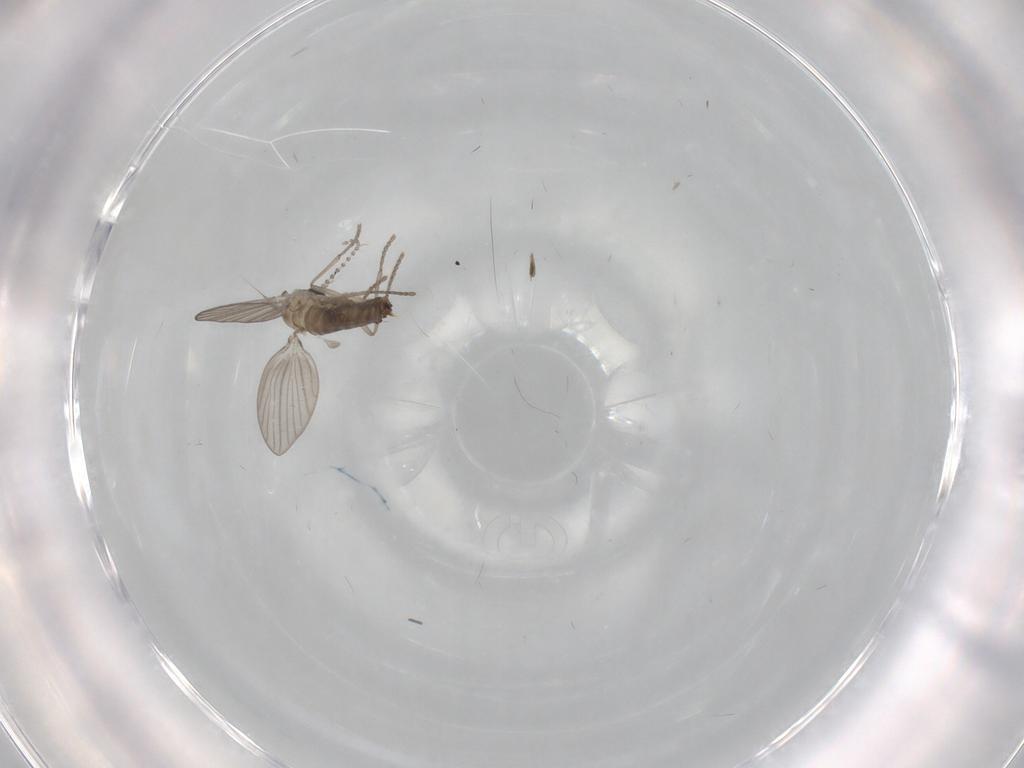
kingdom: Animalia
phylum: Arthropoda
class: Insecta
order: Diptera
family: Psychodidae
